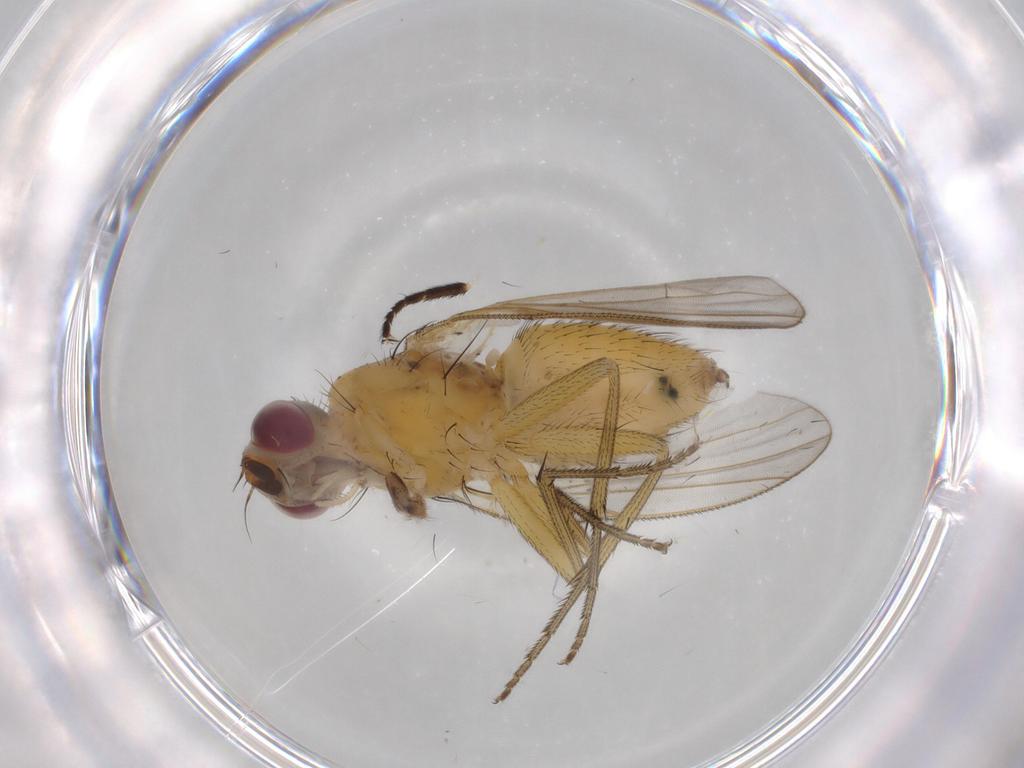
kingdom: Animalia
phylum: Arthropoda
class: Insecta
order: Diptera
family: Muscidae
